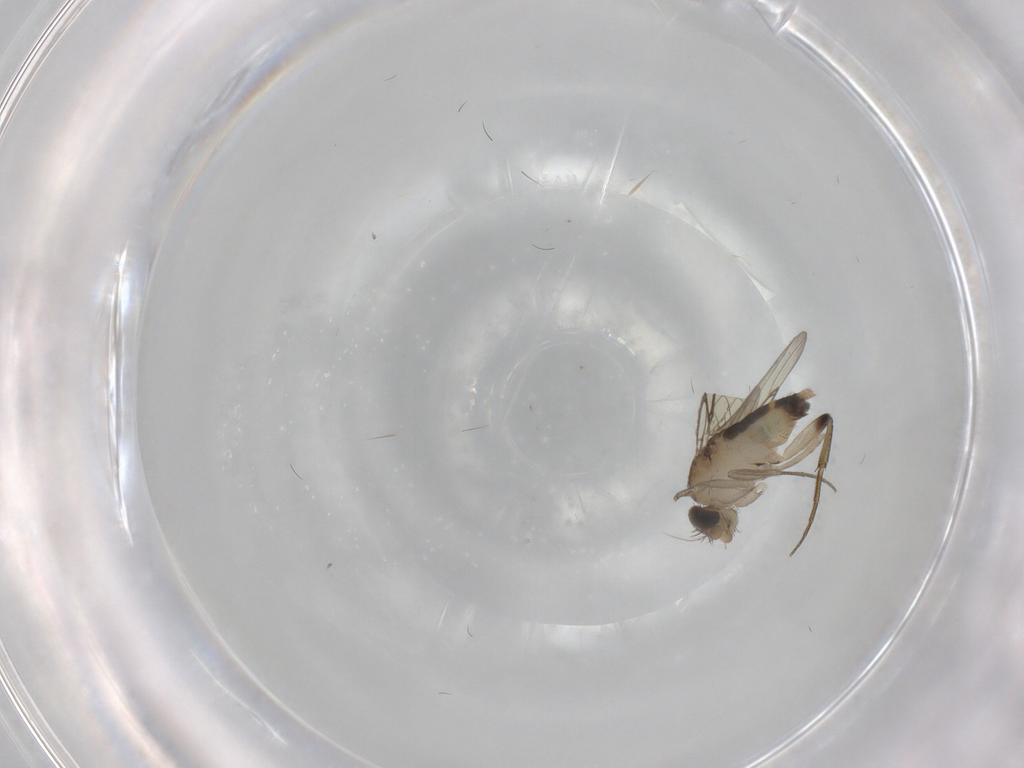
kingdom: Animalia
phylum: Arthropoda
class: Insecta
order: Diptera
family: Phoridae
